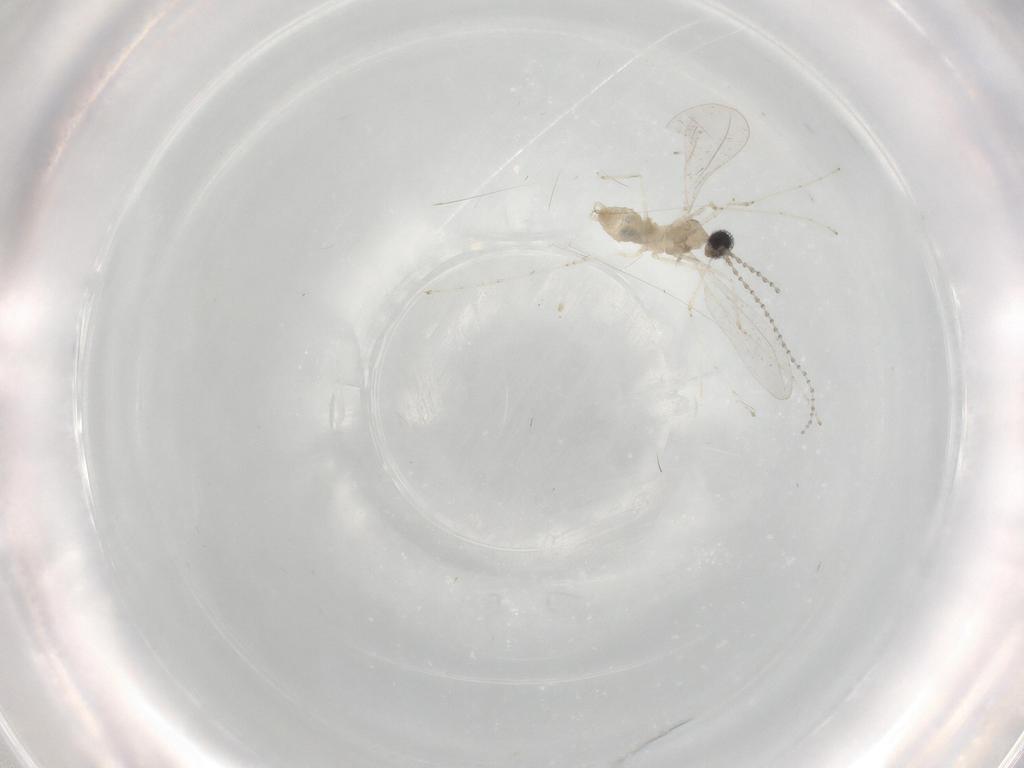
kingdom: Animalia
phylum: Arthropoda
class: Insecta
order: Diptera
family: Cecidomyiidae
